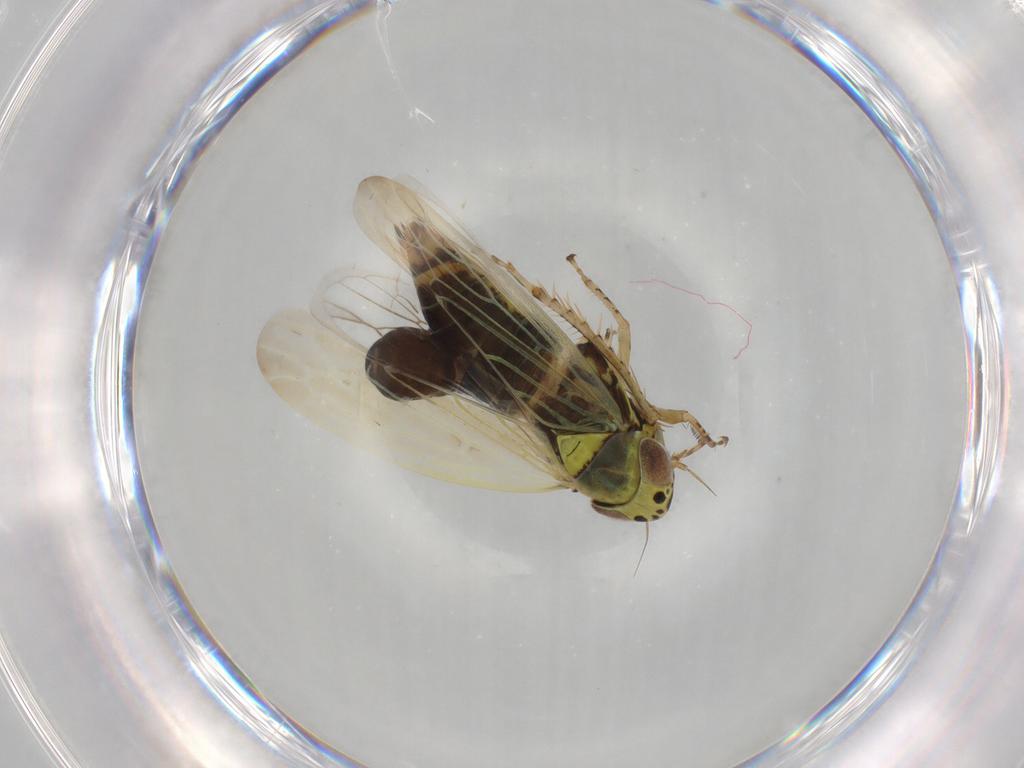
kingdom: Animalia
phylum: Arthropoda
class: Insecta
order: Hemiptera
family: Cicadellidae
